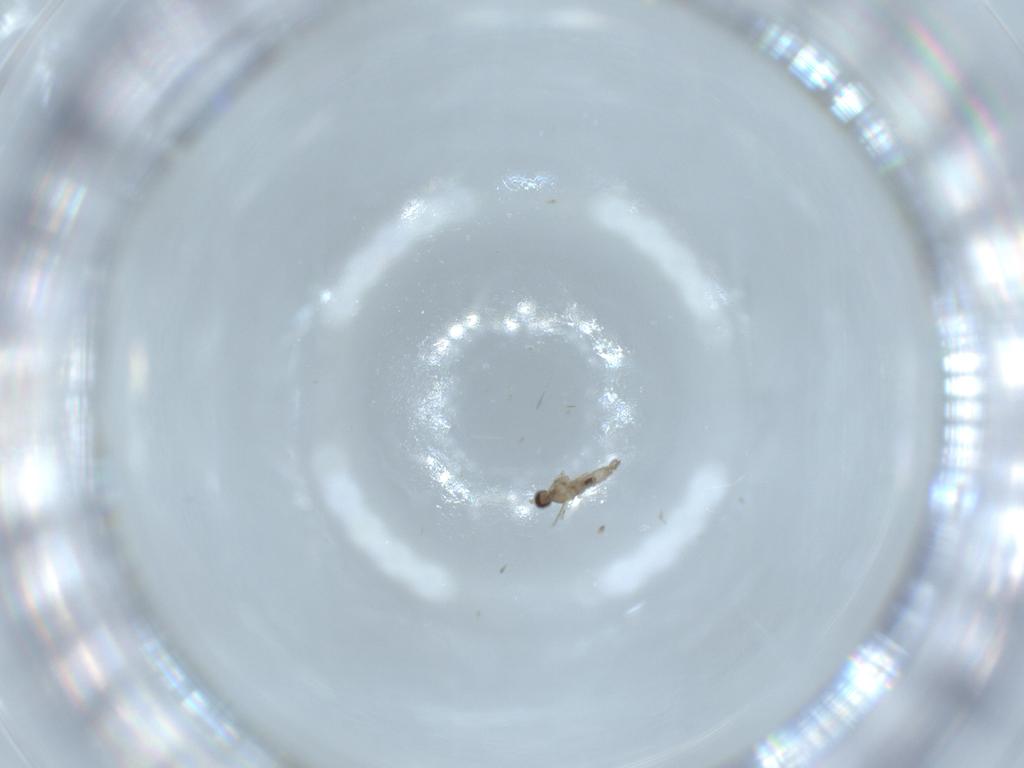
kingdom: Animalia
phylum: Arthropoda
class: Insecta
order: Diptera
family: Cecidomyiidae
